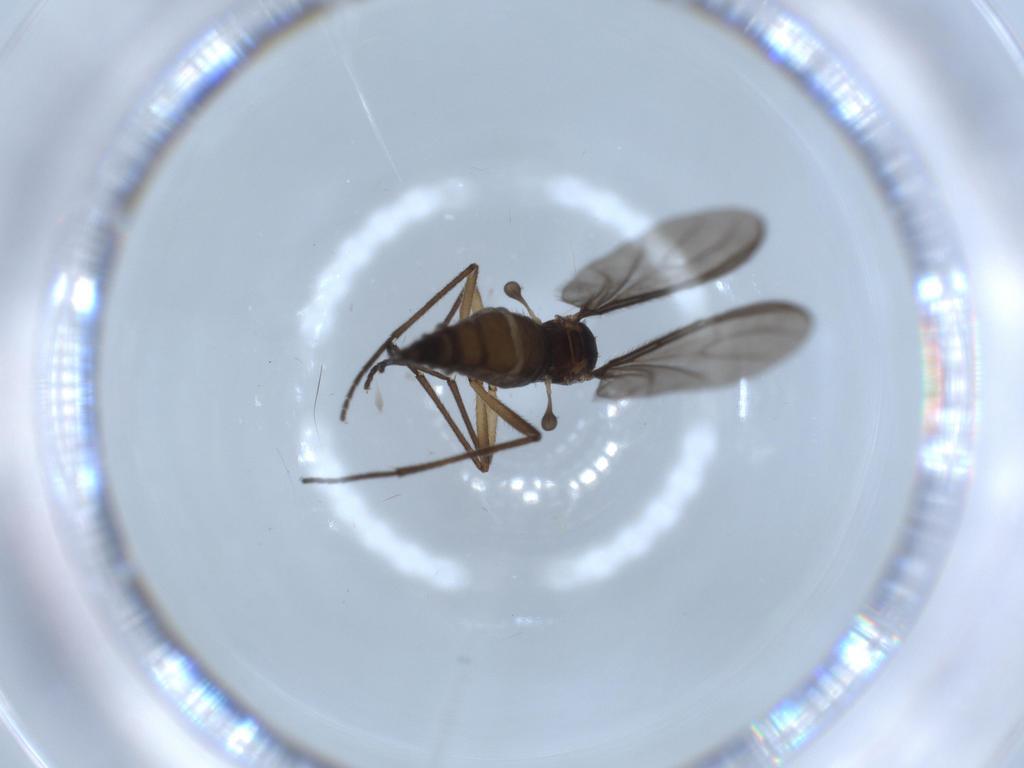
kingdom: Animalia
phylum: Arthropoda
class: Insecta
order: Diptera
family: Sciaridae
